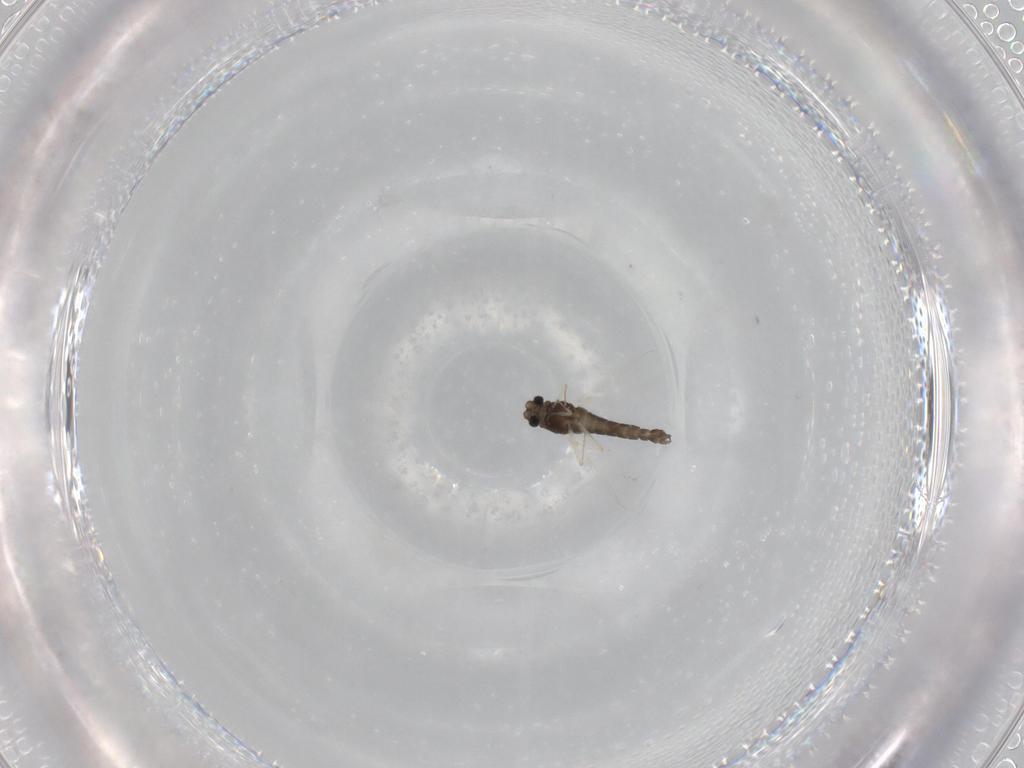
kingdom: Animalia
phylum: Arthropoda
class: Insecta
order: Diptera
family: Chironomidae
